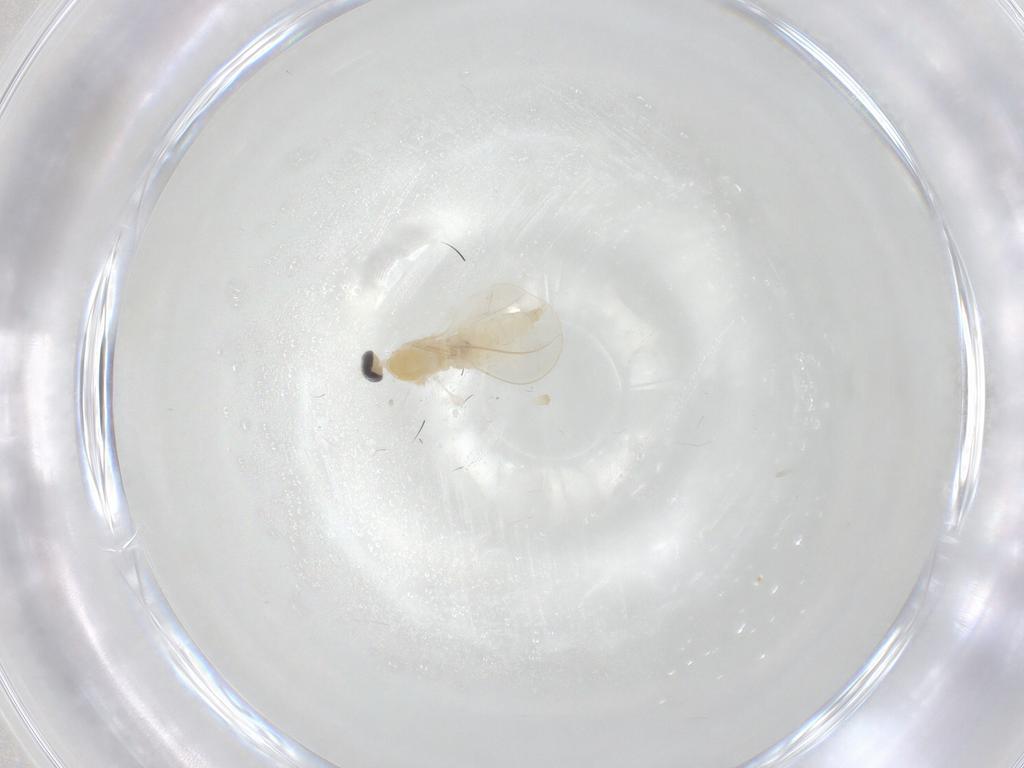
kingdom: Animalia
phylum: Arthropoda
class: Insecta
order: Diptera
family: Cecidomyiidae
